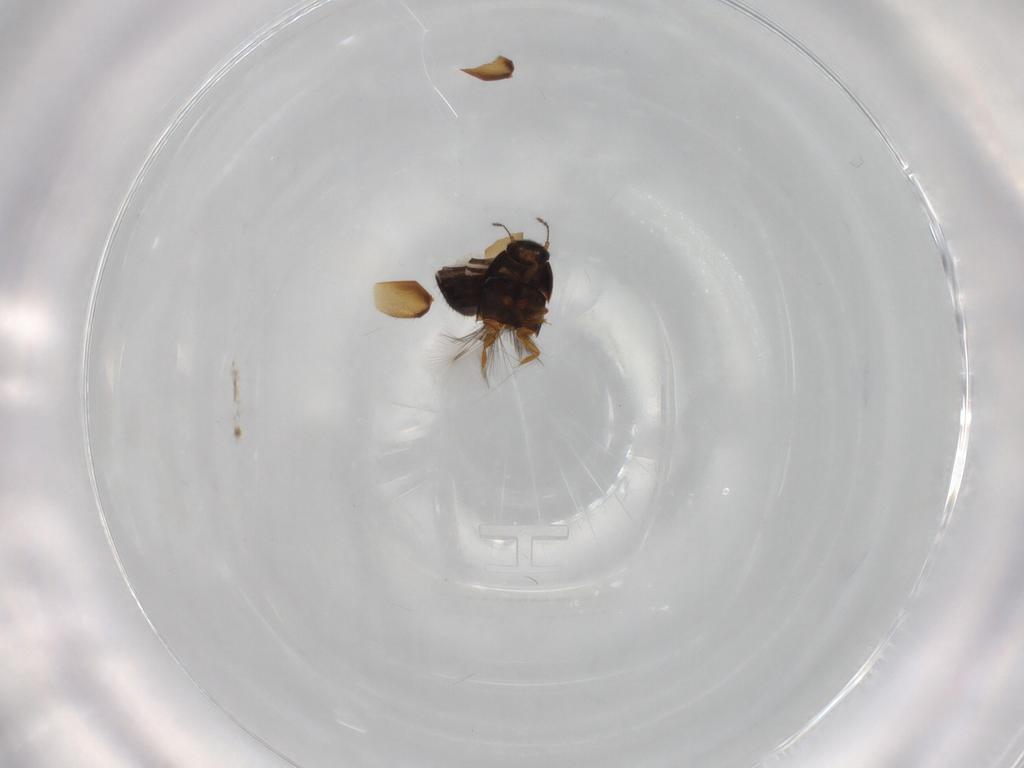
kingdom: Animalia
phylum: Arthropoda
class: Insecta
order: Coleoptera
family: Ptiliidae
